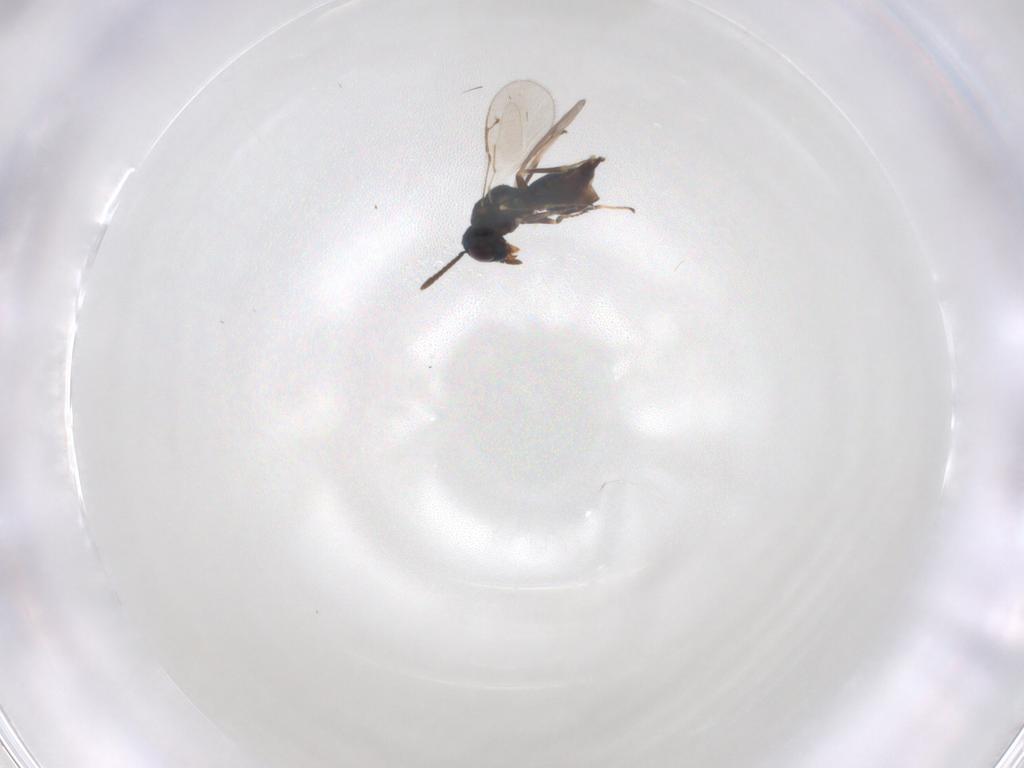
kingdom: Animalia
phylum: Arthropoda
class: Insecta
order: Hymenoptera
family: Pteromalidae
